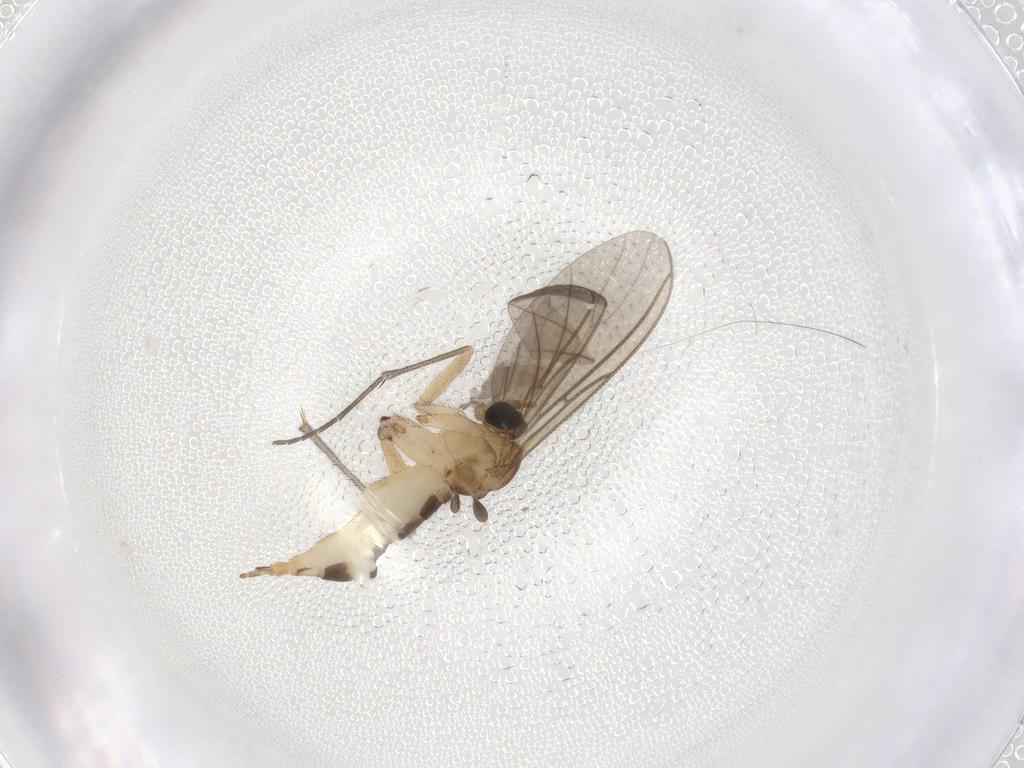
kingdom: Animalia
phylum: Arthropoda
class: Insecta
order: Diptera
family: Sciaridae
